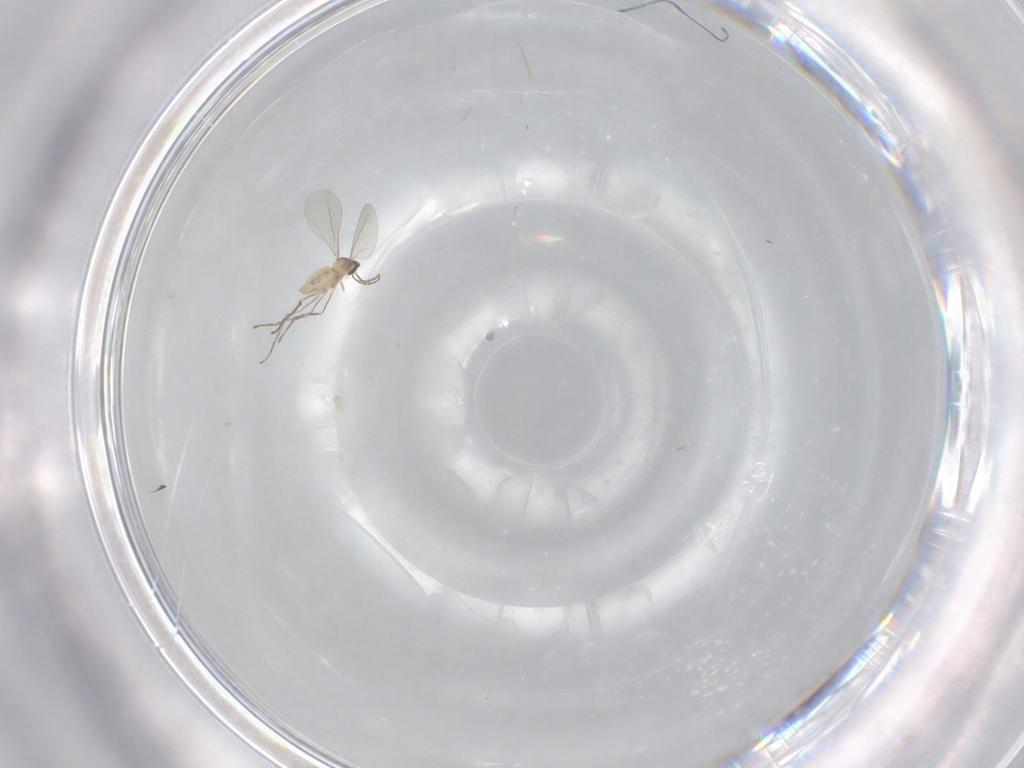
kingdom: Animalia
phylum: Arthropoda
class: Insecta
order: Diptera
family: Cecidomyiidae
